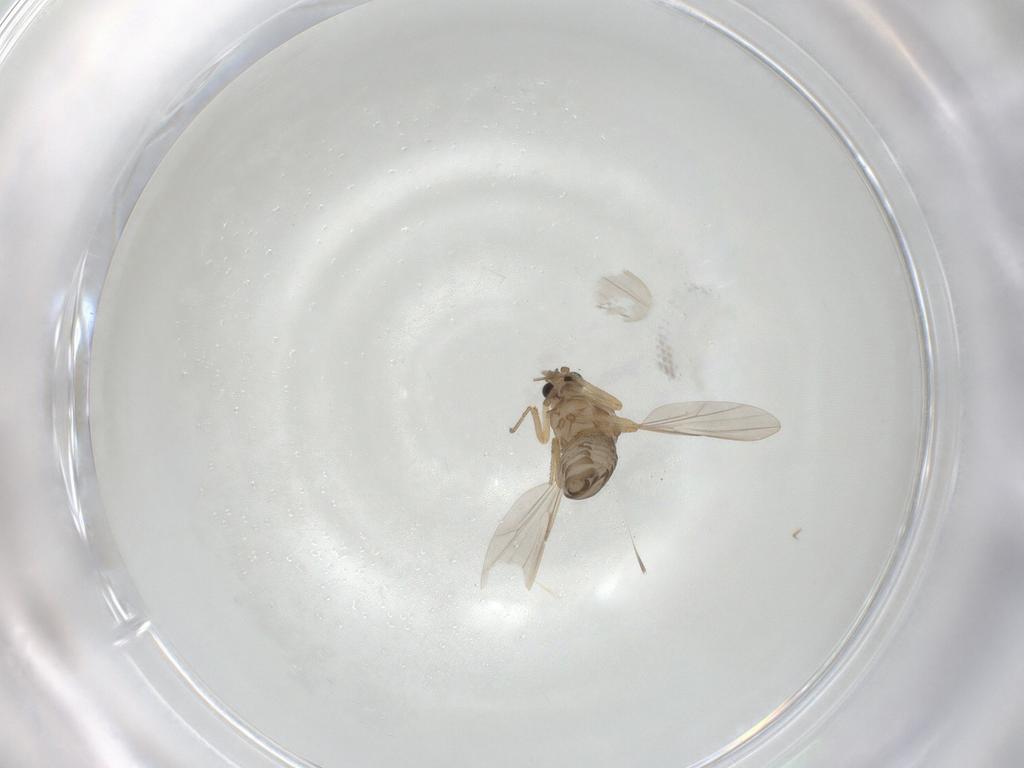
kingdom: Animalia
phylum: Arthropoda
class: Insecta
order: Diptera
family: Ceratopogonidae
